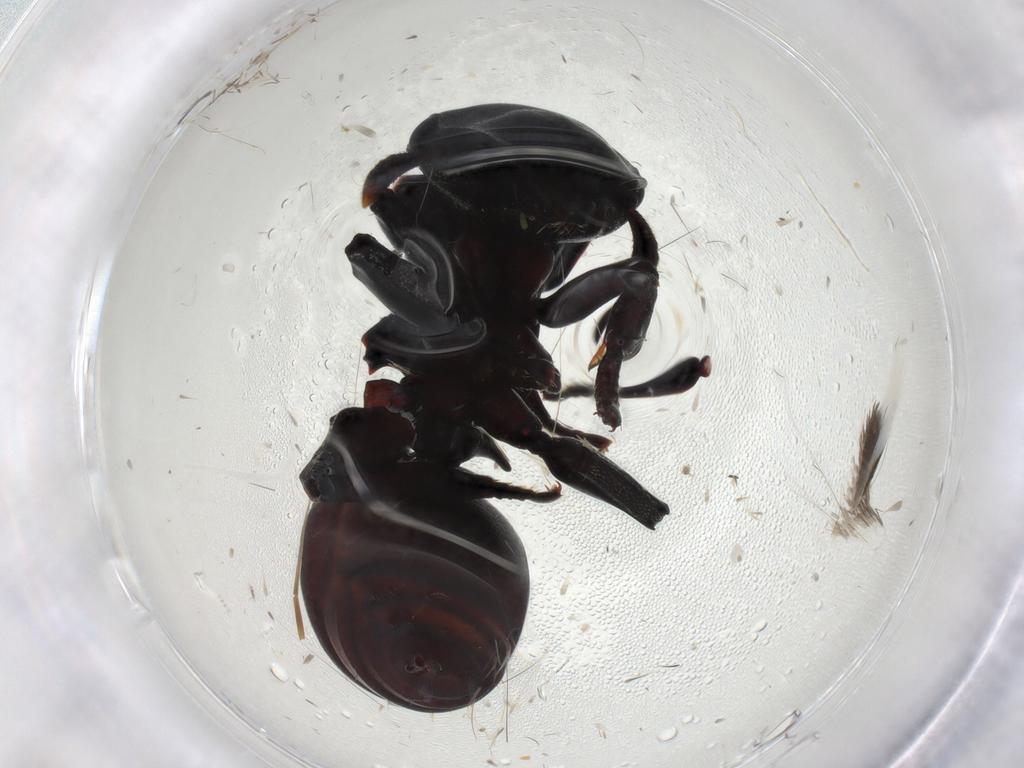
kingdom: Animalia
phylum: Arthropoda
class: Insecta
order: Hymenoptera
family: Formicidae
